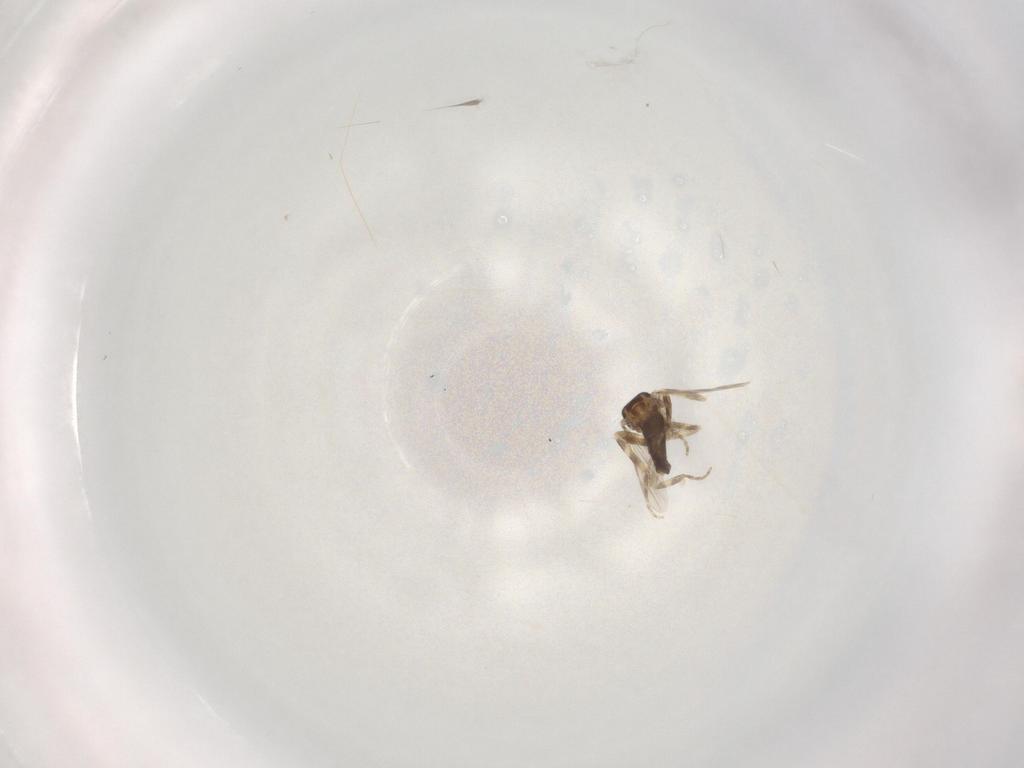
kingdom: Animalia
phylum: Arthropoda
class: Insecta
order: Diptera
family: Ceratopogonidae
